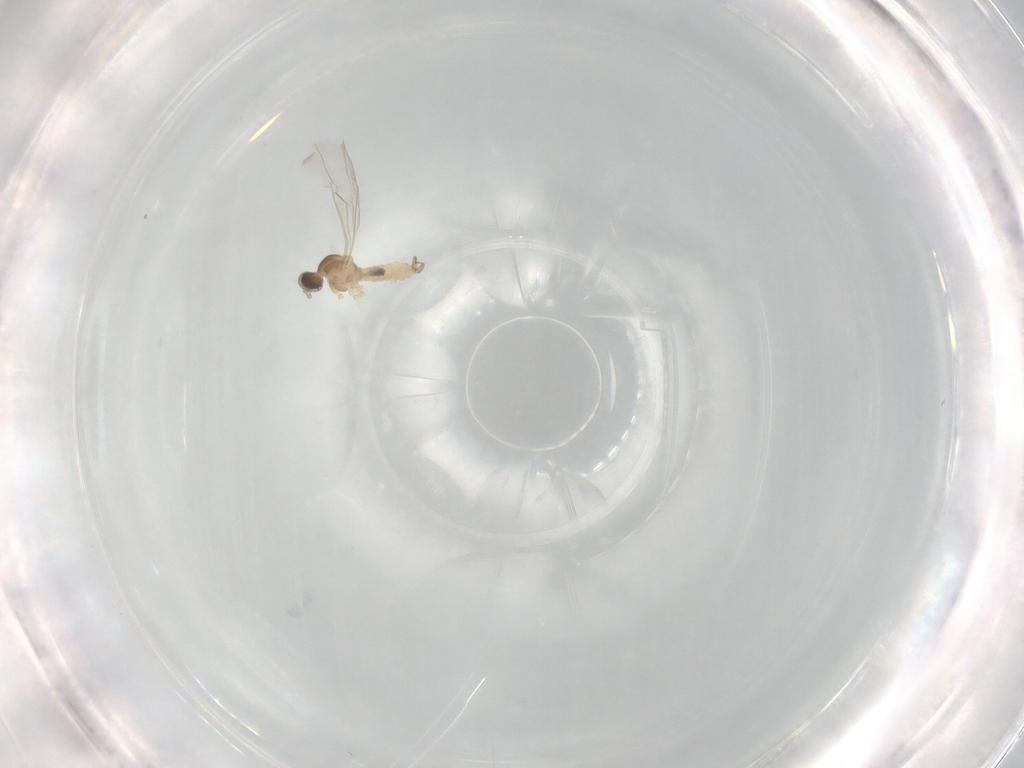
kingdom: Animalia
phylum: Arthropoda
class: Insecta
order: Diptera
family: Cecidomyiidae
